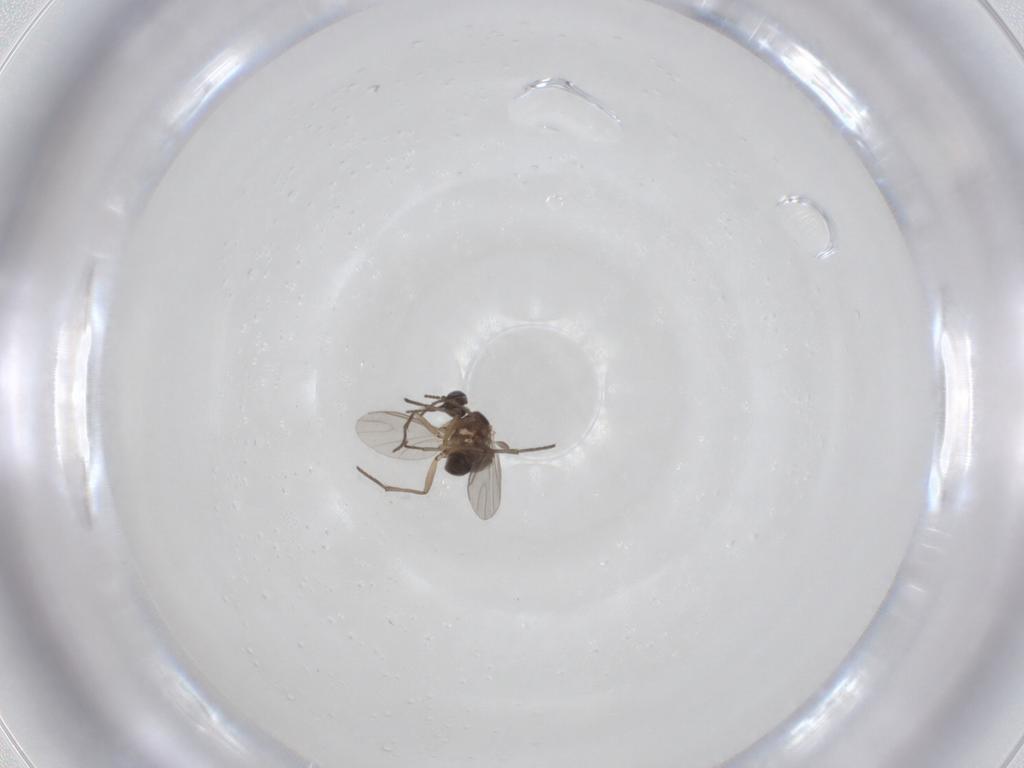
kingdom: Animalia
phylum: Arthropoda
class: Insecta
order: Diptera
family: Sciaridae
